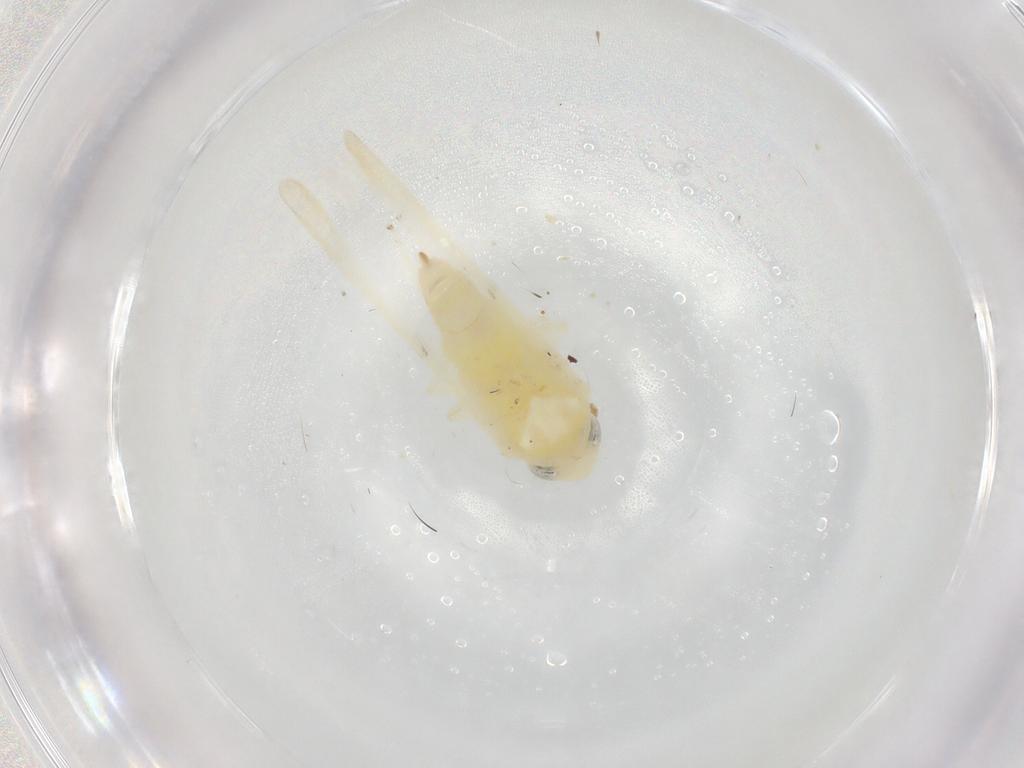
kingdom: Animalia
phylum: Arthropoda
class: Insecta
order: Hemiptera
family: Cicadellidae
